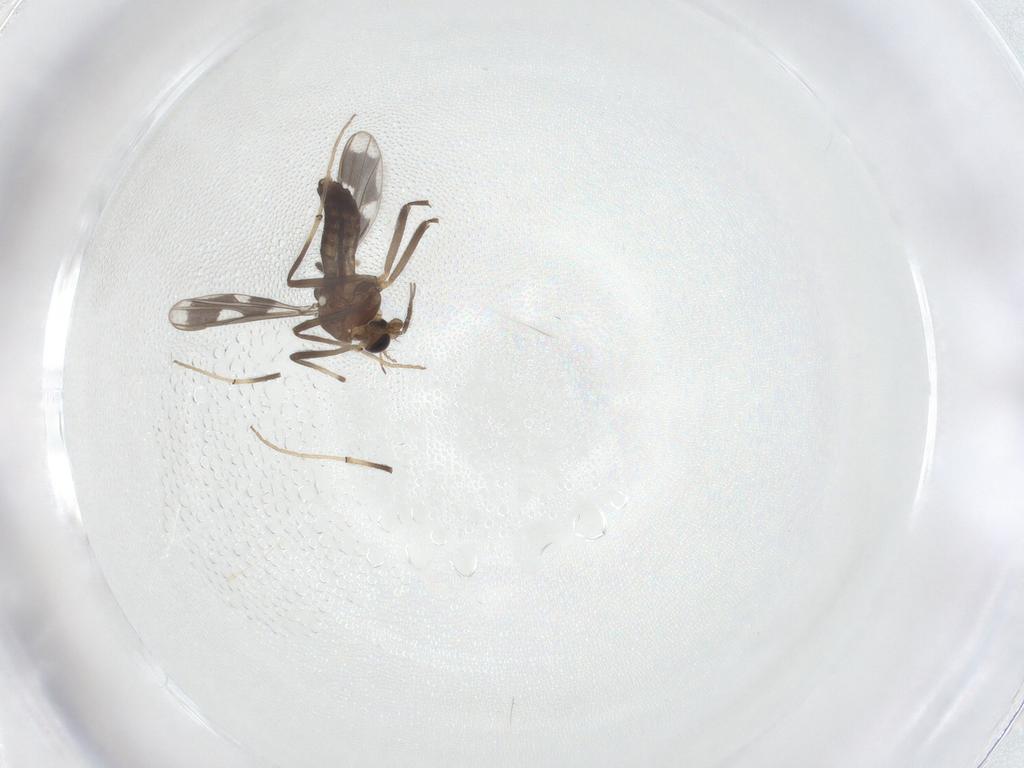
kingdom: Animalia
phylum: Arthropoda
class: Insecta
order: Diptera
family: Chironomidae
